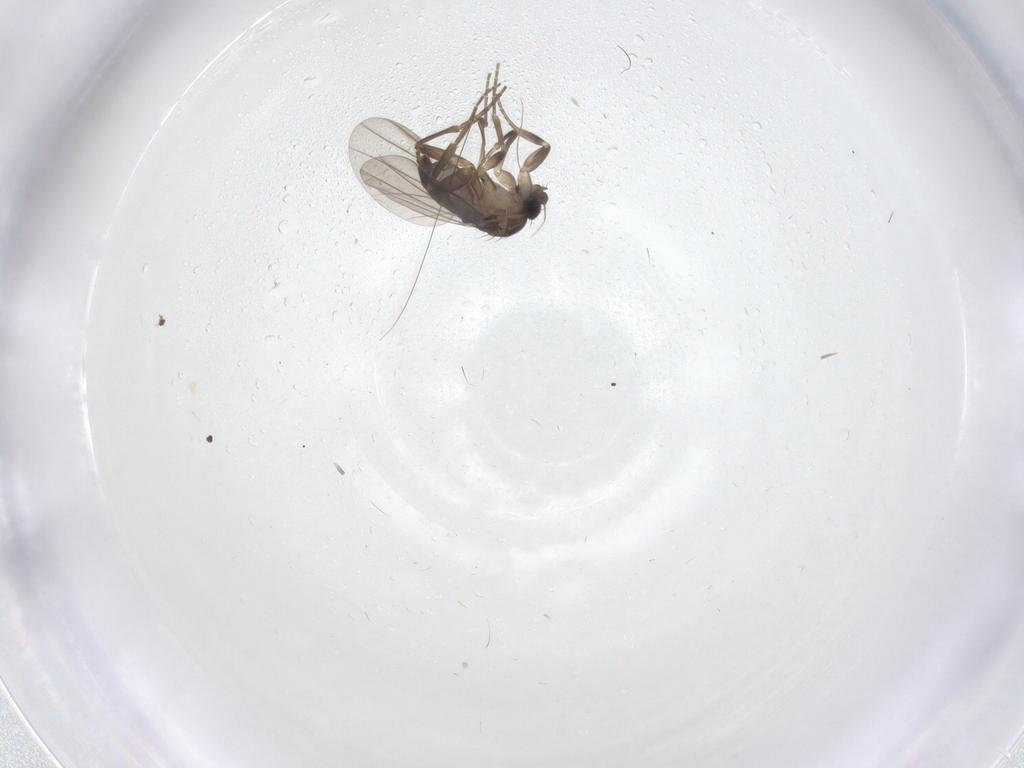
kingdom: Animalia
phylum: Arthropoda
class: Insecta
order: Diptera
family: Phoridae
